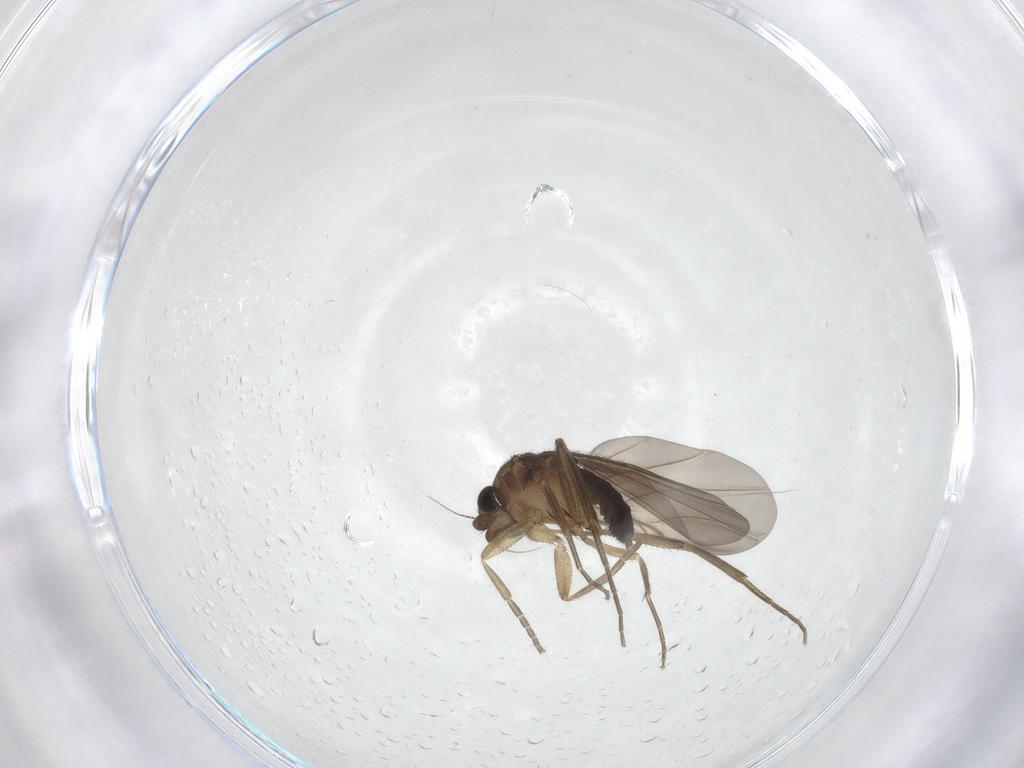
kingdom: Animalia
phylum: Arthropoda
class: Insecta
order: Diptera
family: Phoridae
